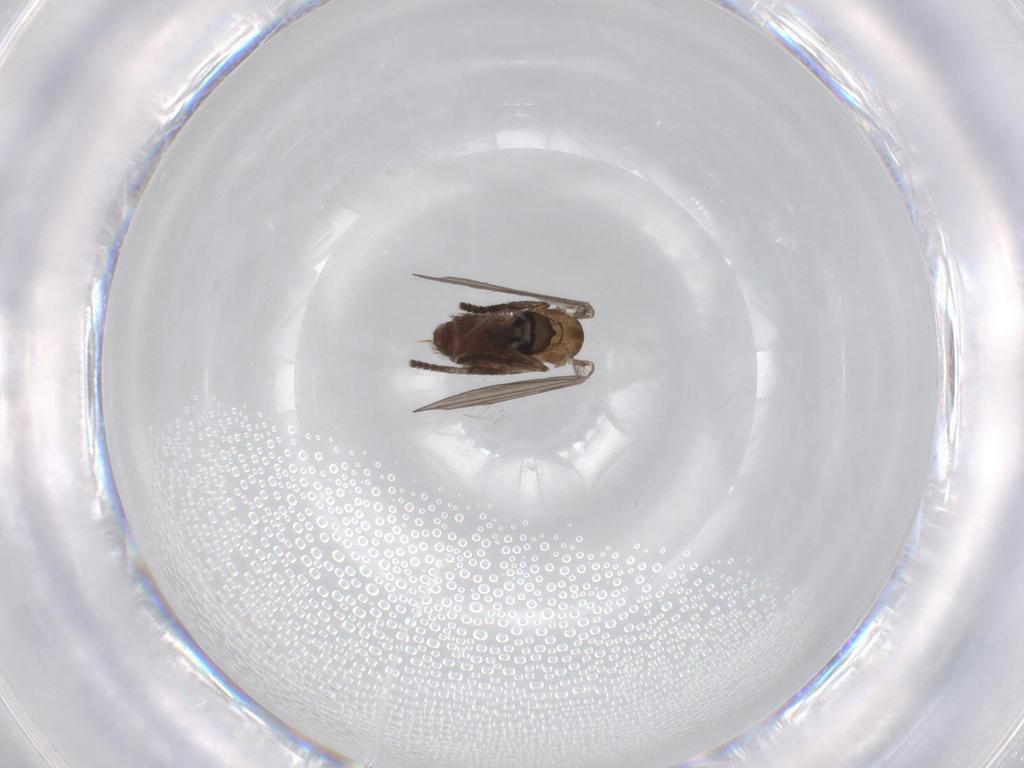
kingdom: Animalia
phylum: Arthropoda
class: Insecta
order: Diptera
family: Psychodidae
